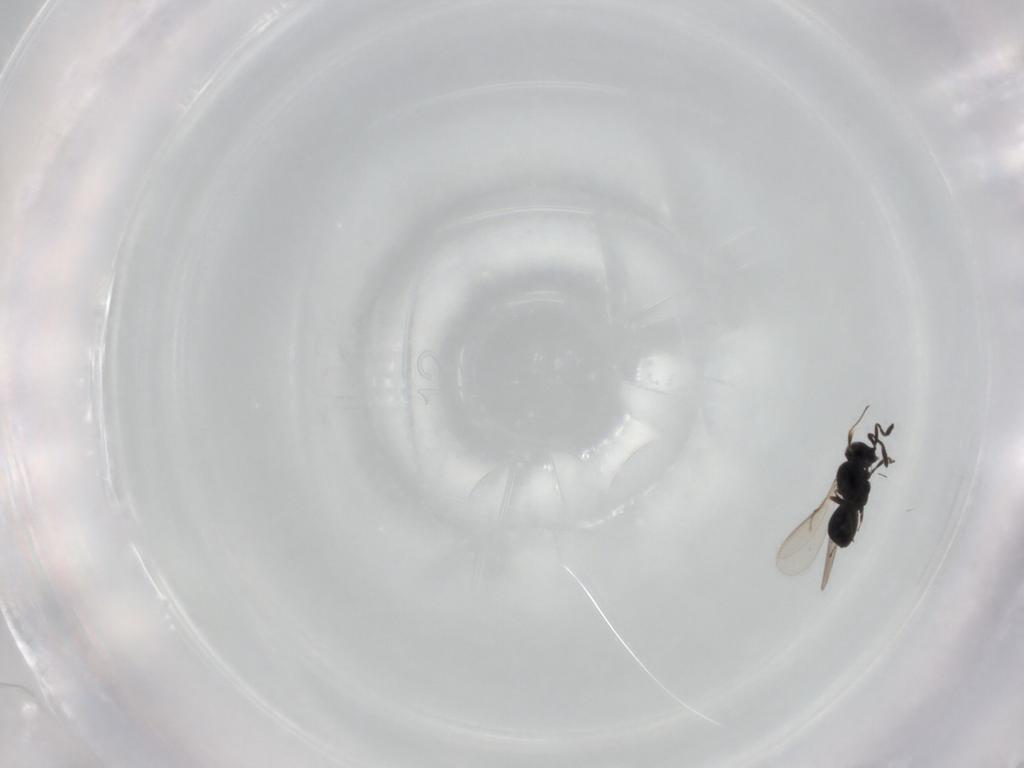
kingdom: Animalia
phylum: Arthropoda
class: Insecta
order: Hymenoptera
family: Scelionidae
